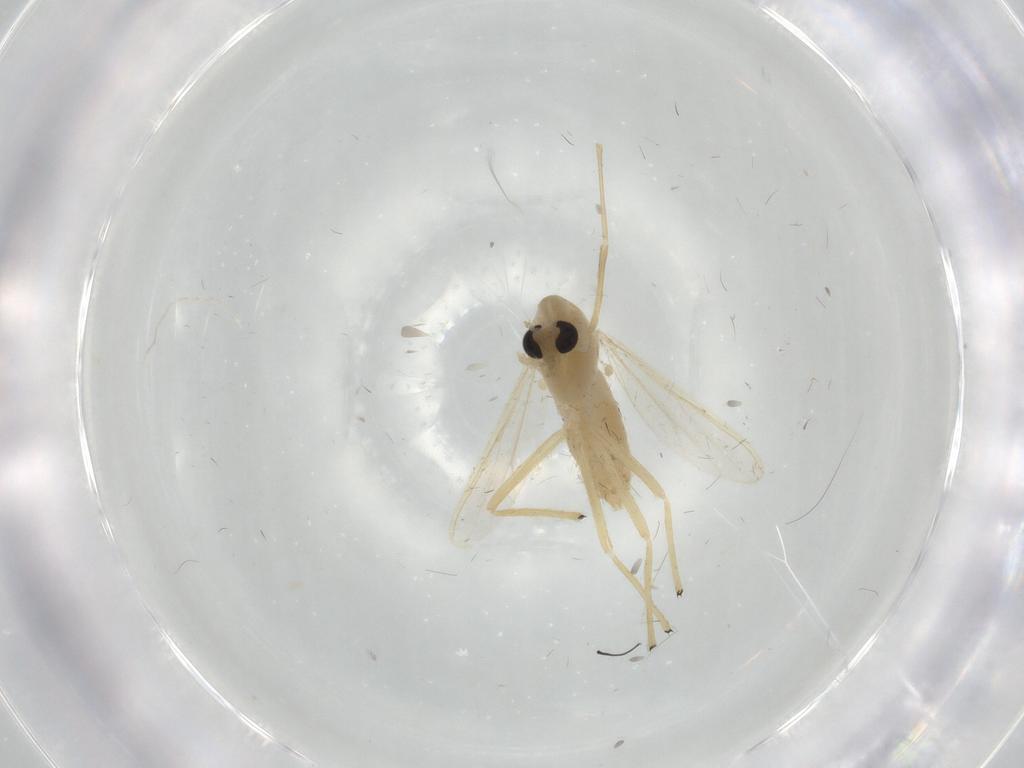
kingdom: Animalia
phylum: Arthropoda
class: Insecta
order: Diptera
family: Chironomidae
